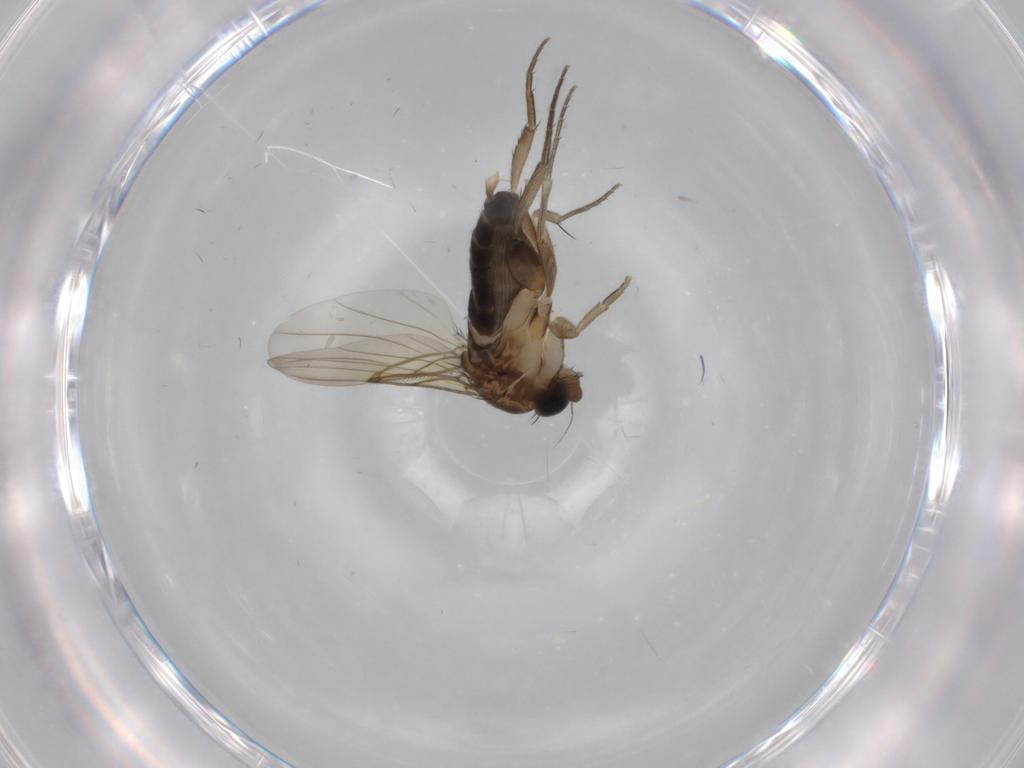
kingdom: Animalia
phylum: Arthropoda
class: Insecta
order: Diptera
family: Phoridae
